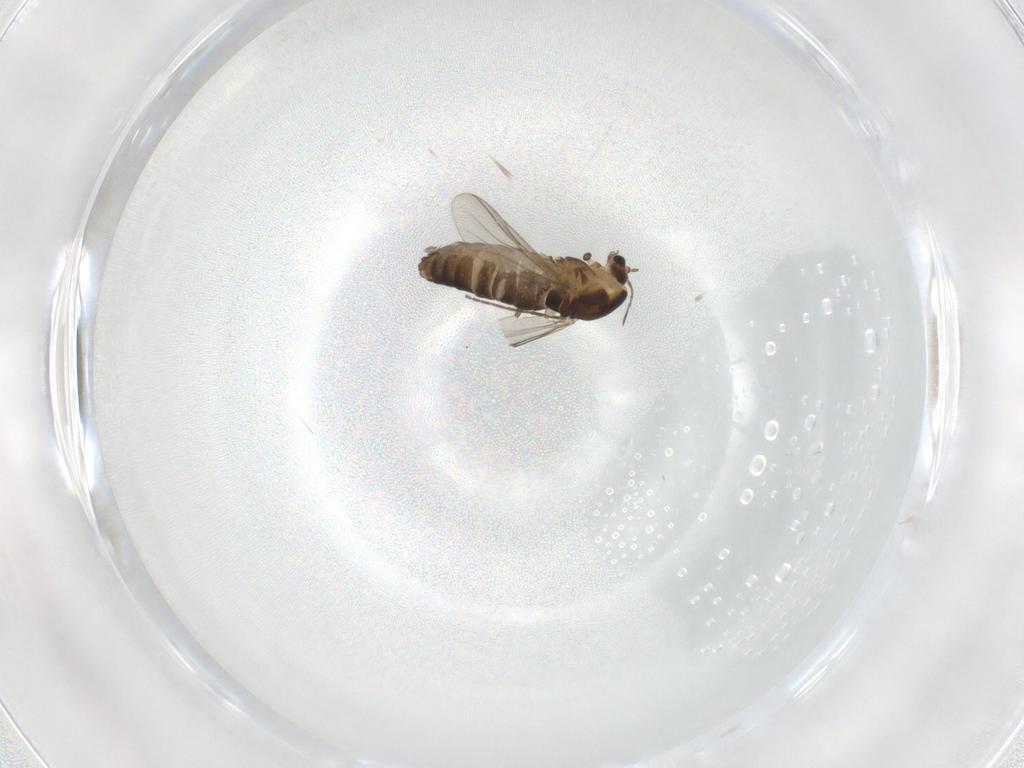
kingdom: Animalia
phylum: Arthropoda
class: Insecta
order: Diptera
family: Chironomidae
